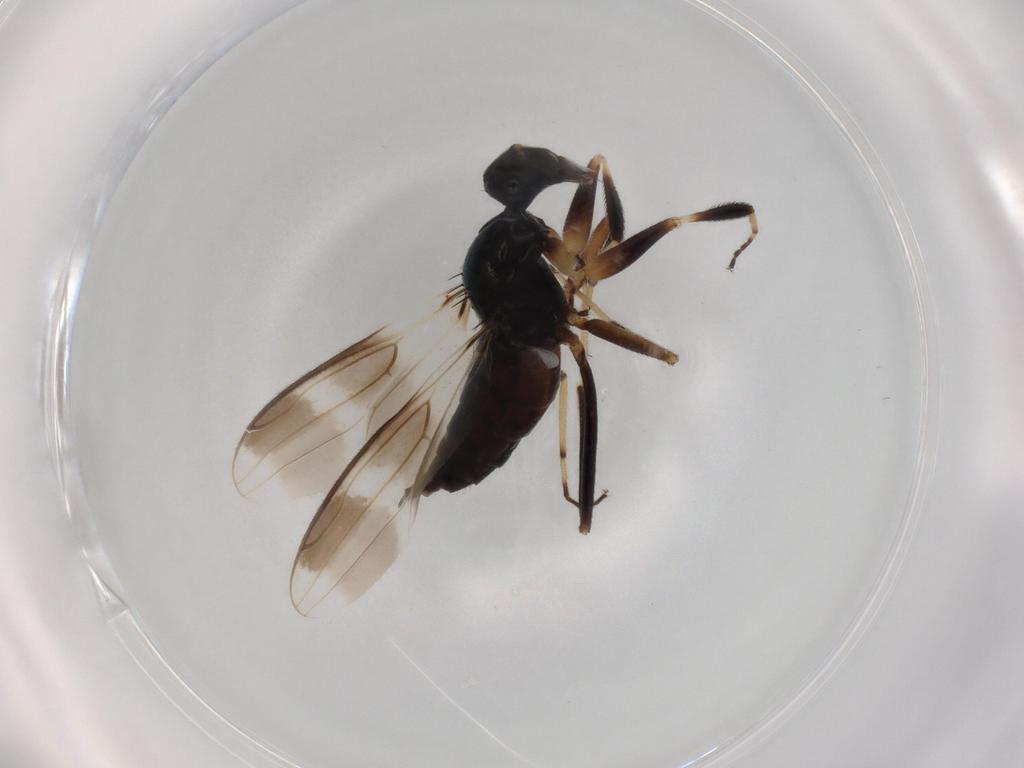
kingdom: Animalia
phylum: Arthropoda
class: Insecta
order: Diptera
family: Hybotidae
